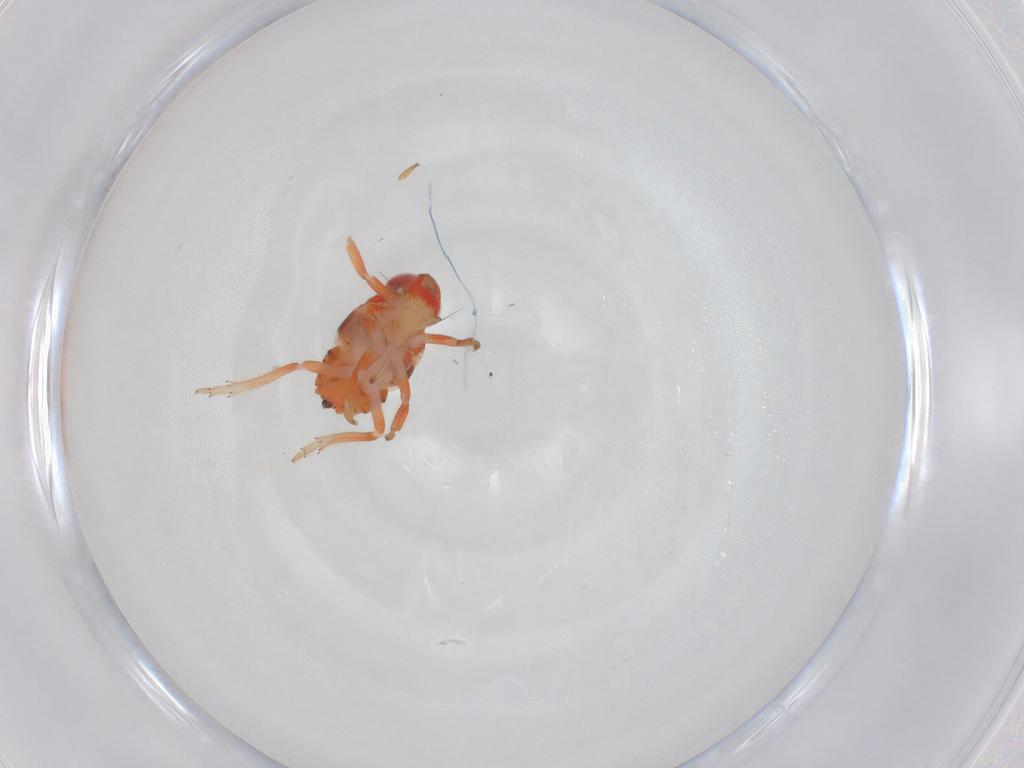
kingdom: Animalia
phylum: Arthropoda
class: Insecta
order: Hemiptera
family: Issidae
